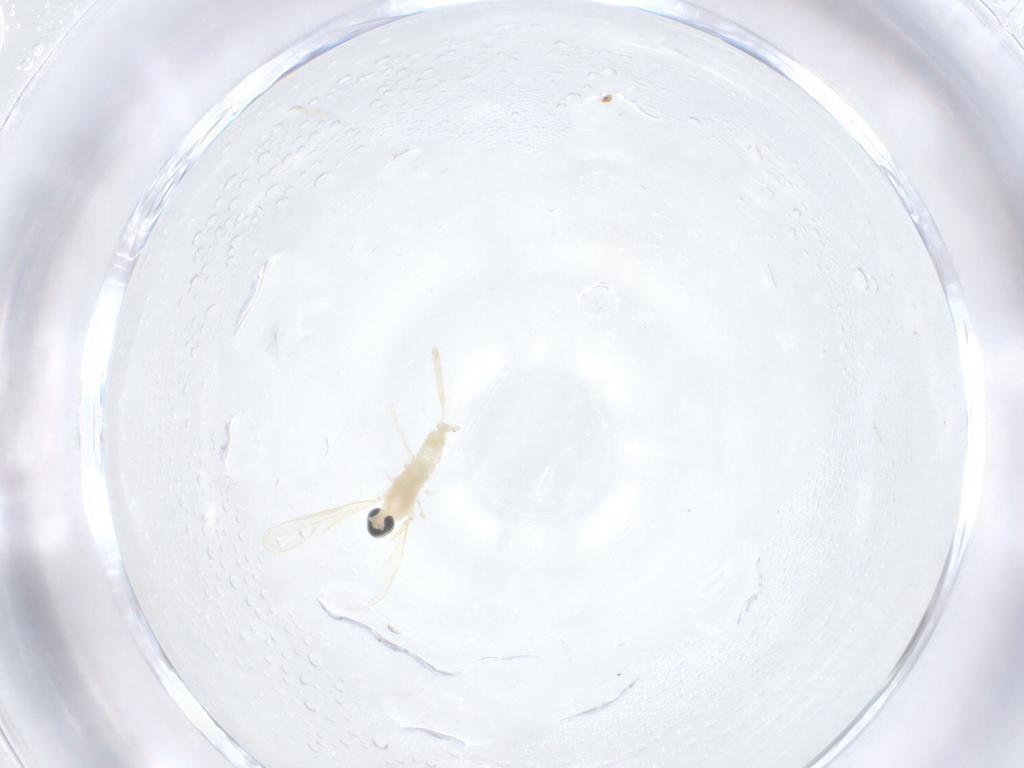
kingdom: Animalia
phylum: Arthropoda
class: Insecta
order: Diptera
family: Cecidomyiidae
